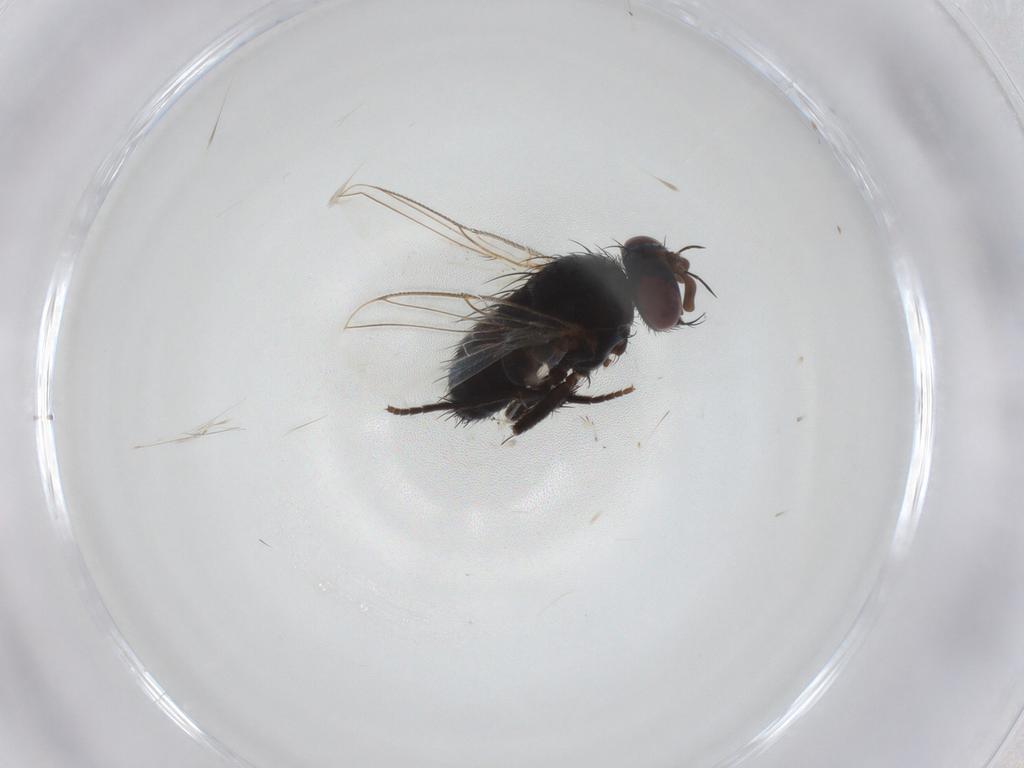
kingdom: Animalia
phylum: Arthropoda
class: Insecta
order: Diptera
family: Tachinidae
